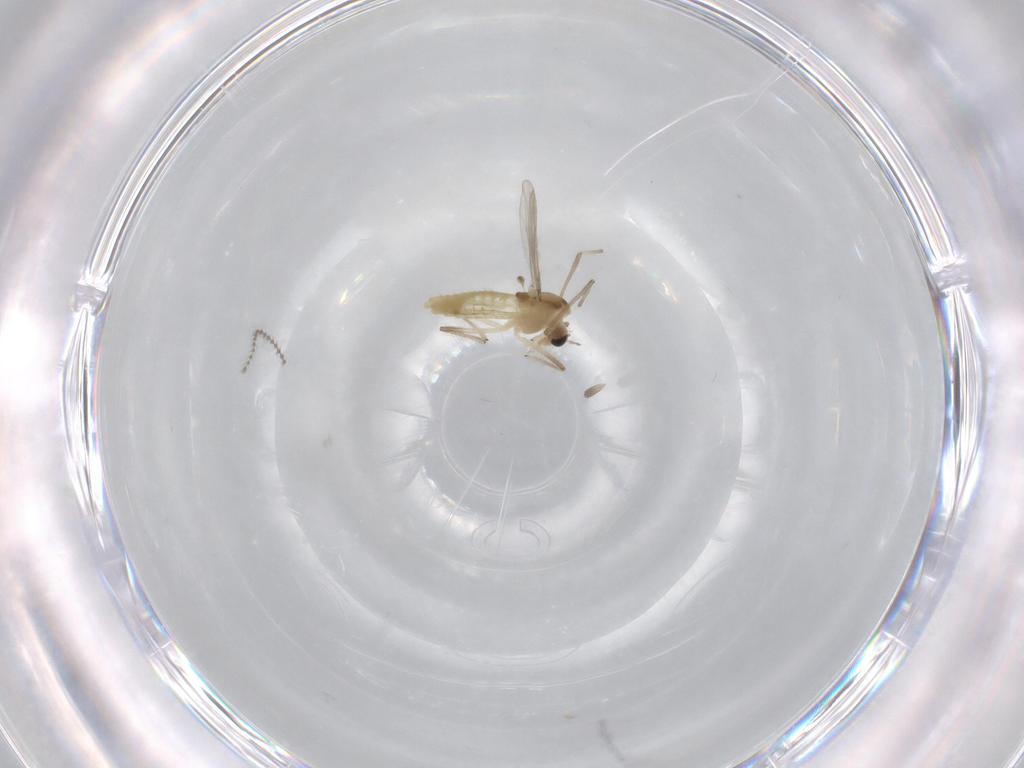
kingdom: Animalia
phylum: Arthropoda
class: Insecta
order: Diptera
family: Chironomidae
